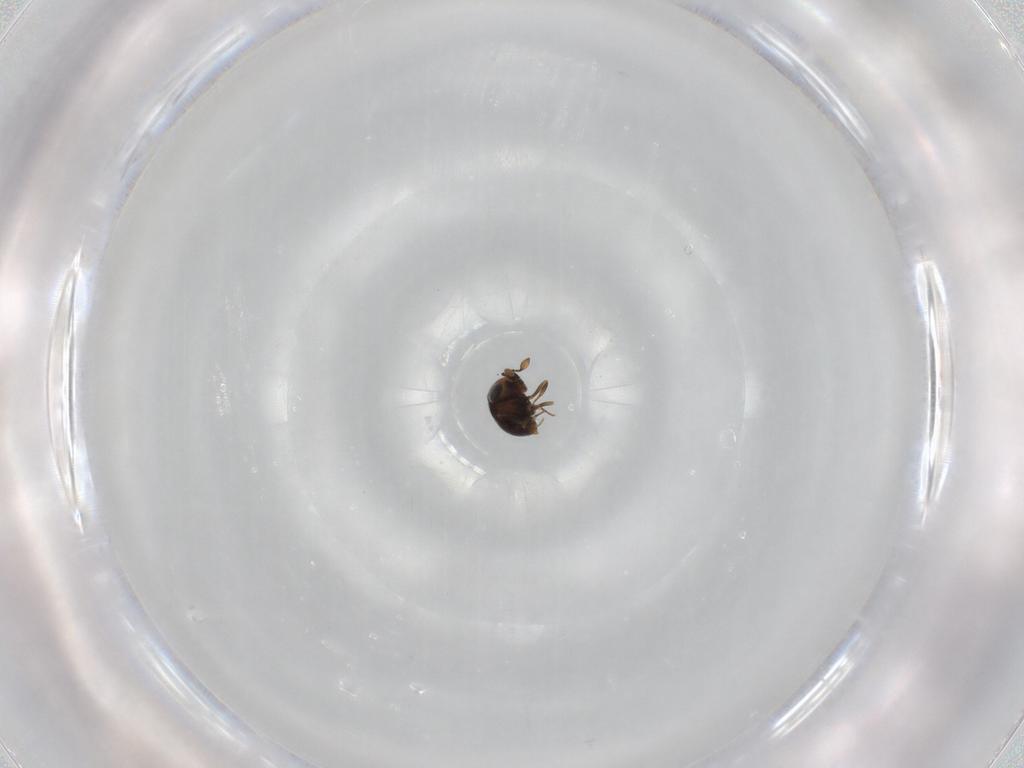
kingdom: Animalia
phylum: Arthropoda
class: Insecta
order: Hymenoptera
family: Scelionidae
